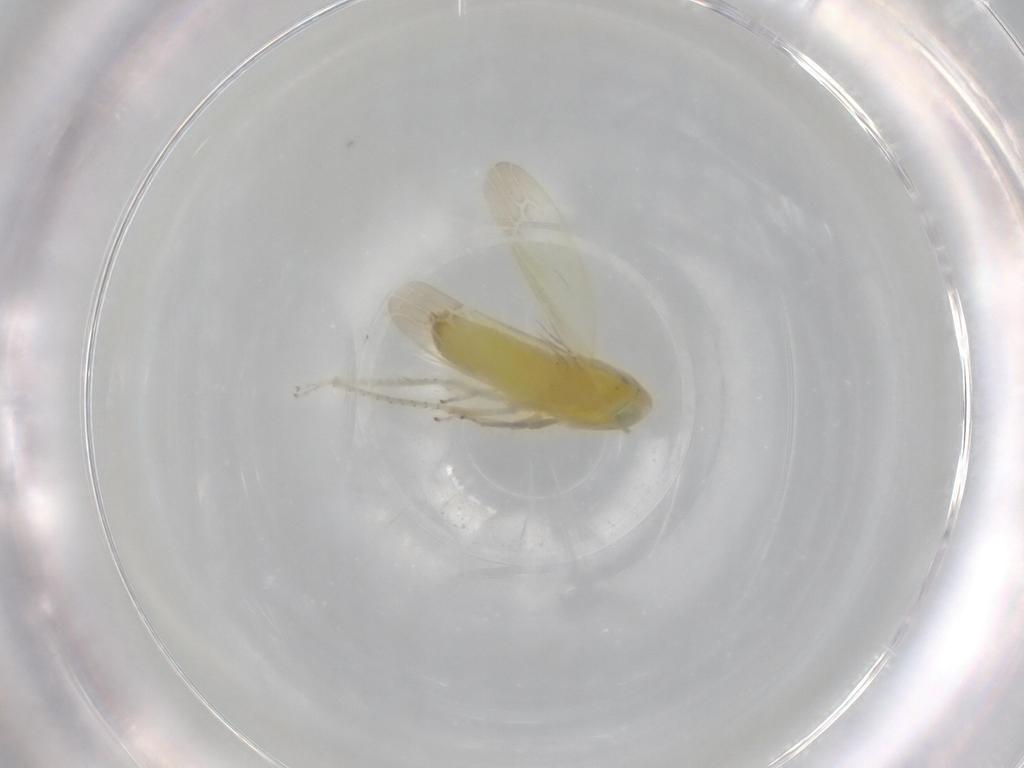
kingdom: Animalia
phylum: Arthropoda
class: Insecta
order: Hemiptera
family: Cicadellidae
